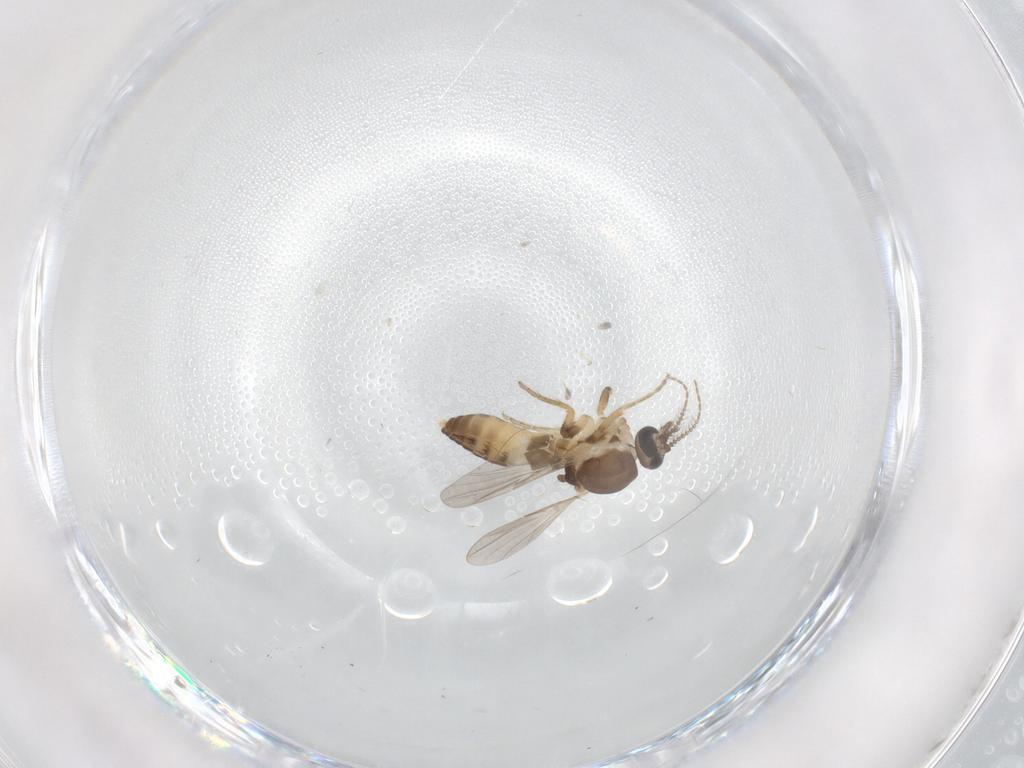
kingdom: Animalia
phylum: Arthropoda
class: Insecta
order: Diptera
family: Ceratopogonidae
